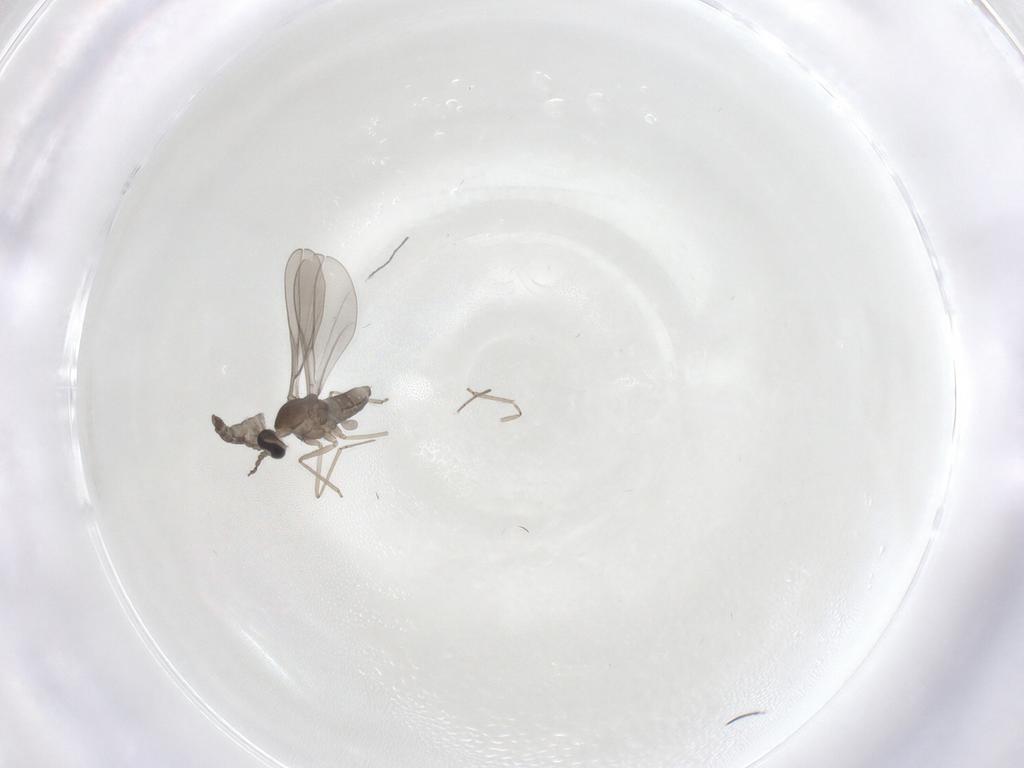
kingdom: Animalia
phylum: Arthropoda
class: Insecta
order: Diptera
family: Cecidomyiidae
